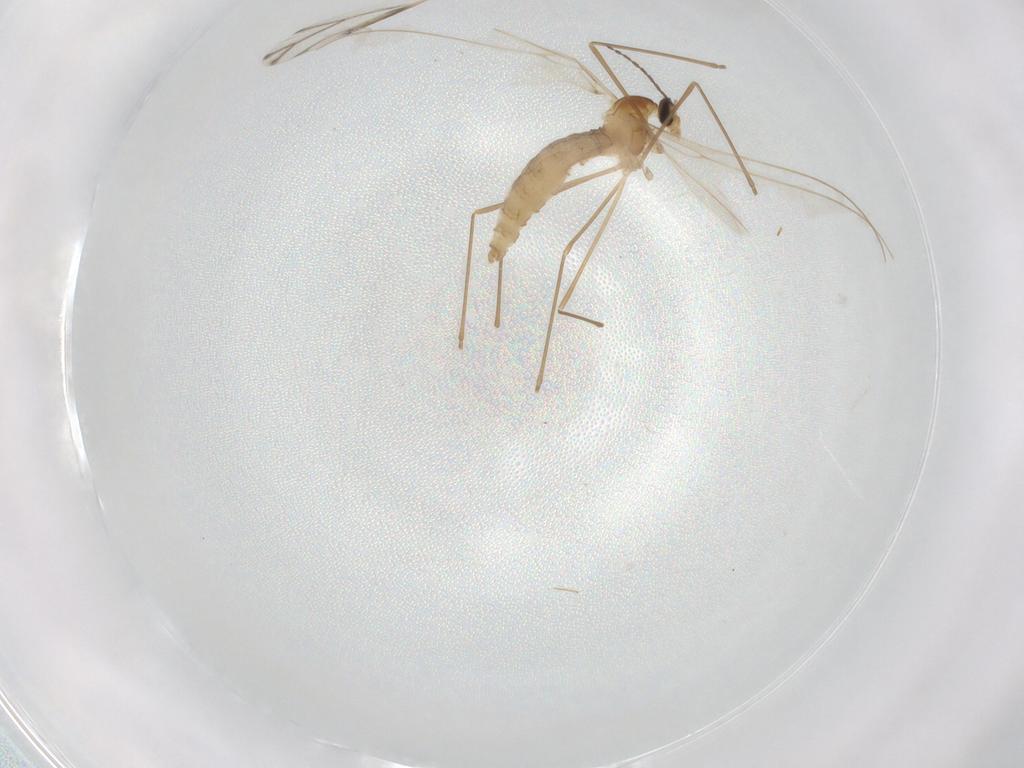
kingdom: Animalia
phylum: Arthropoda
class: Insecta
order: Diptera
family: Cecidomyiidae
